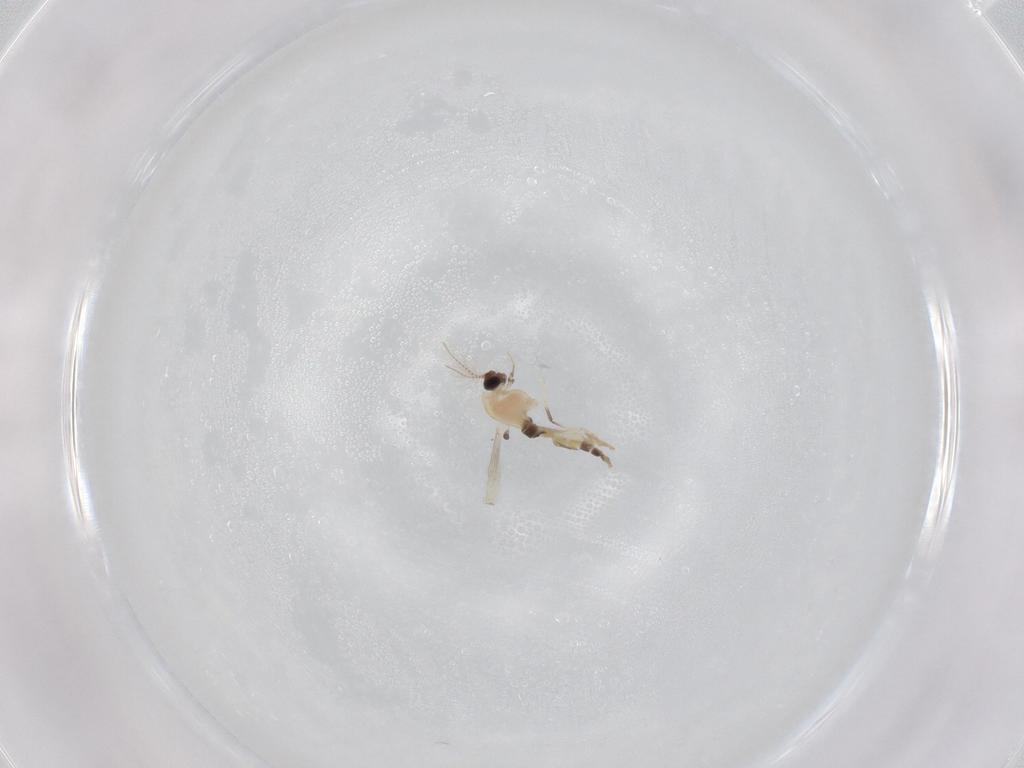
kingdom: Animalia
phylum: Arthropoda
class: Insecta
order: Diptera
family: Chironomidae
